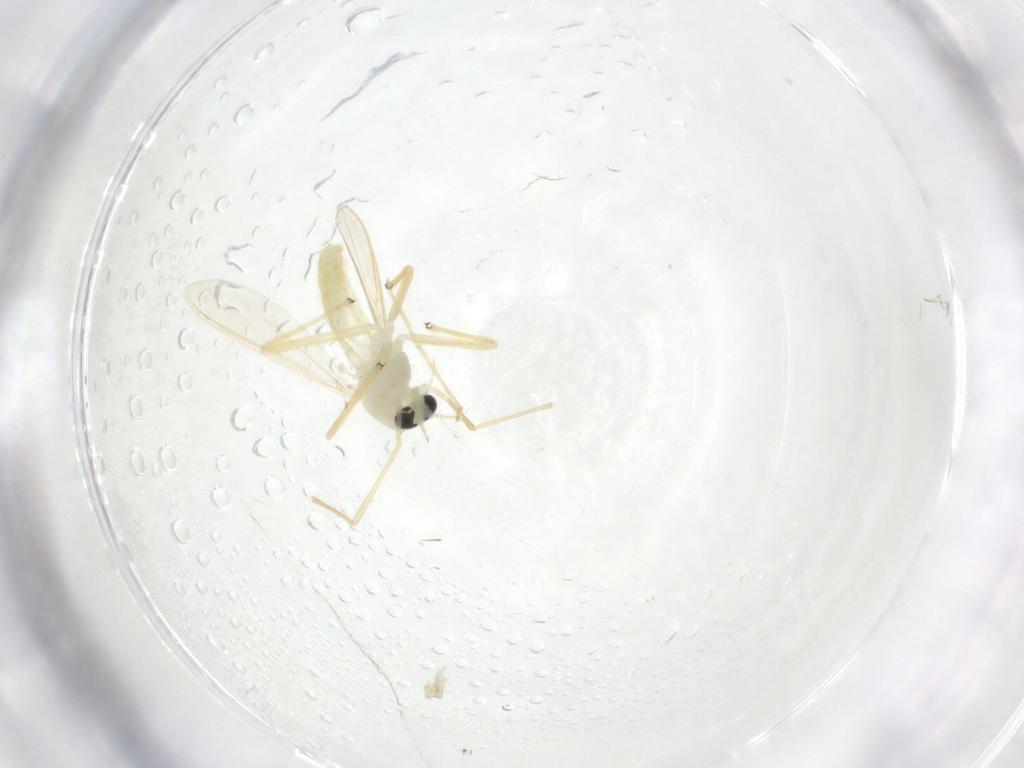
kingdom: Animalia
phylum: Arthropoda
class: Insecta
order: Diptera
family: Chironomidae
